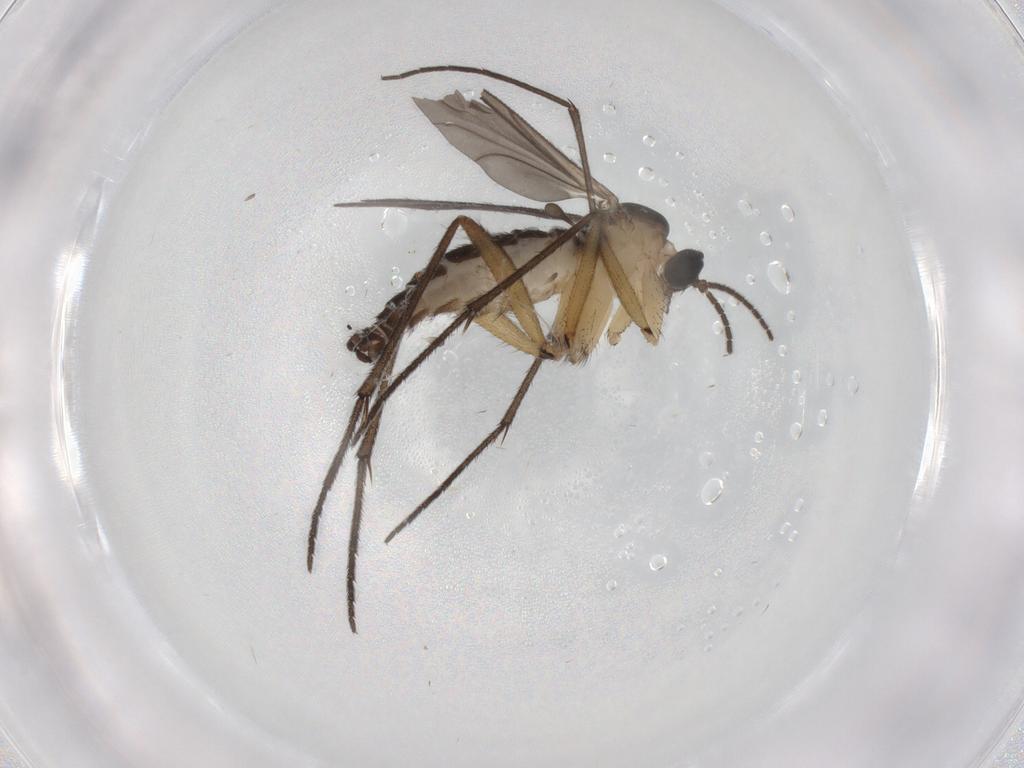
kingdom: Animalia
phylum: Arthropoda
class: Insecta
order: Diptera
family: Sciaridae
